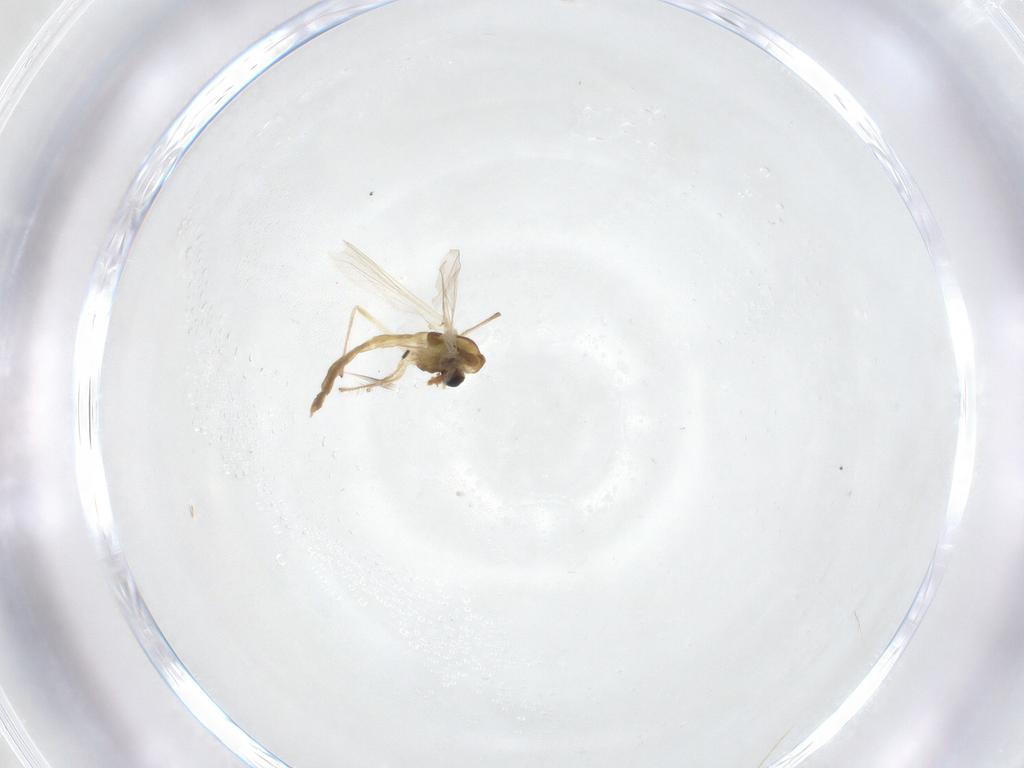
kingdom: Animalia
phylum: Arthropoda
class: Insecta
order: Diptera
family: Chironomidae
